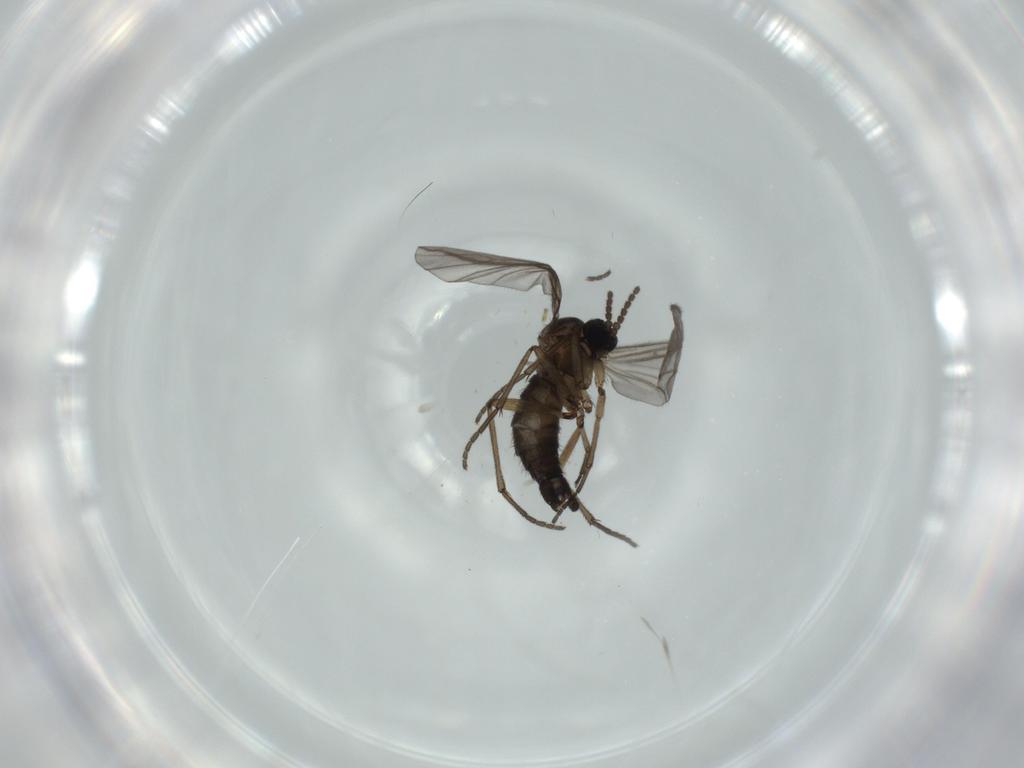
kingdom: Animalia
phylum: Arthropoda
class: Insecta
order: Diptera
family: Sciaridae
